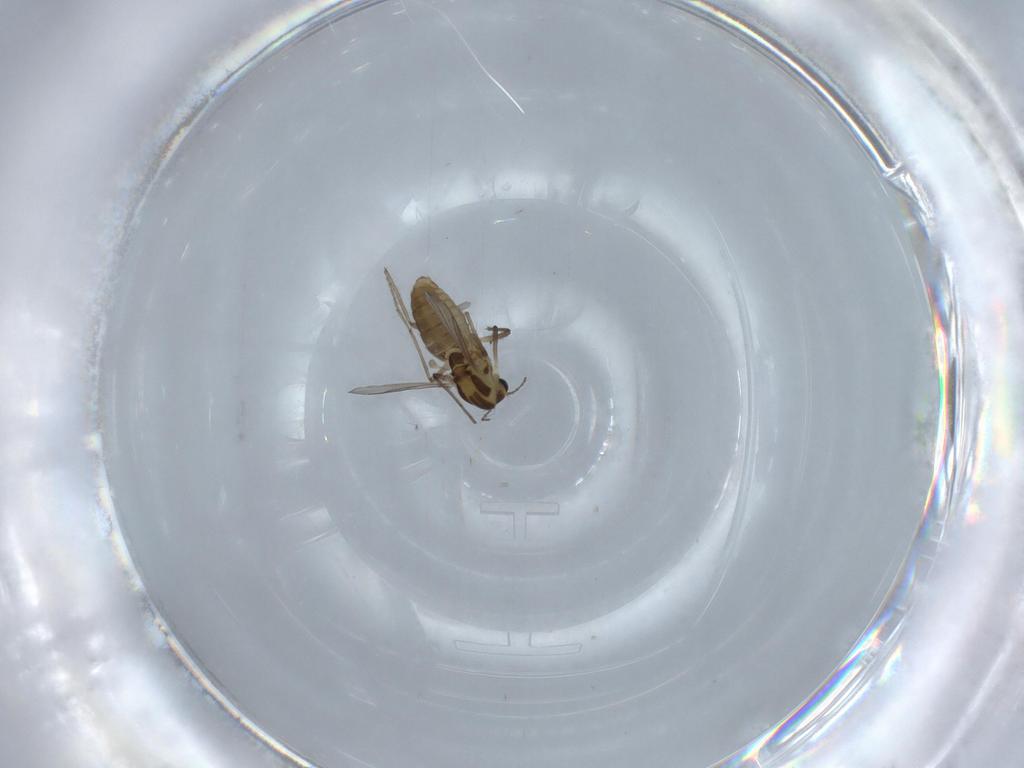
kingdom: Animalia
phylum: Arthropoda
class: Insecta
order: Diptera
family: Chironomidae
